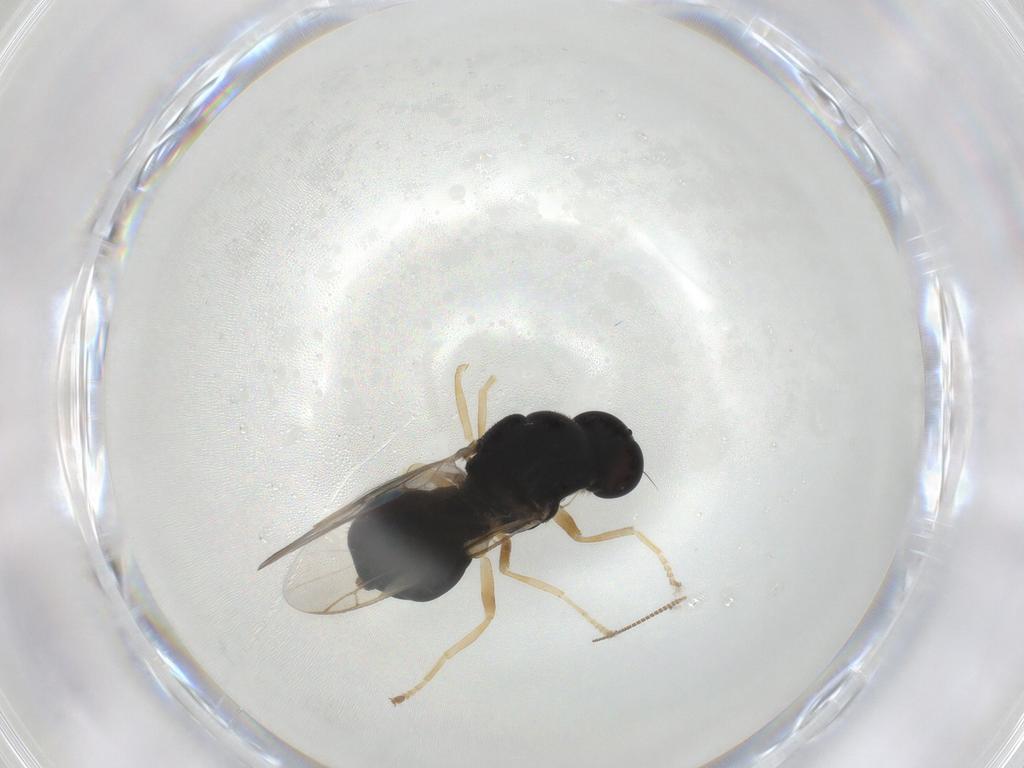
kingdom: Animalia
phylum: Arthropoda
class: Insecta
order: Diptera
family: Stratiomyidae
